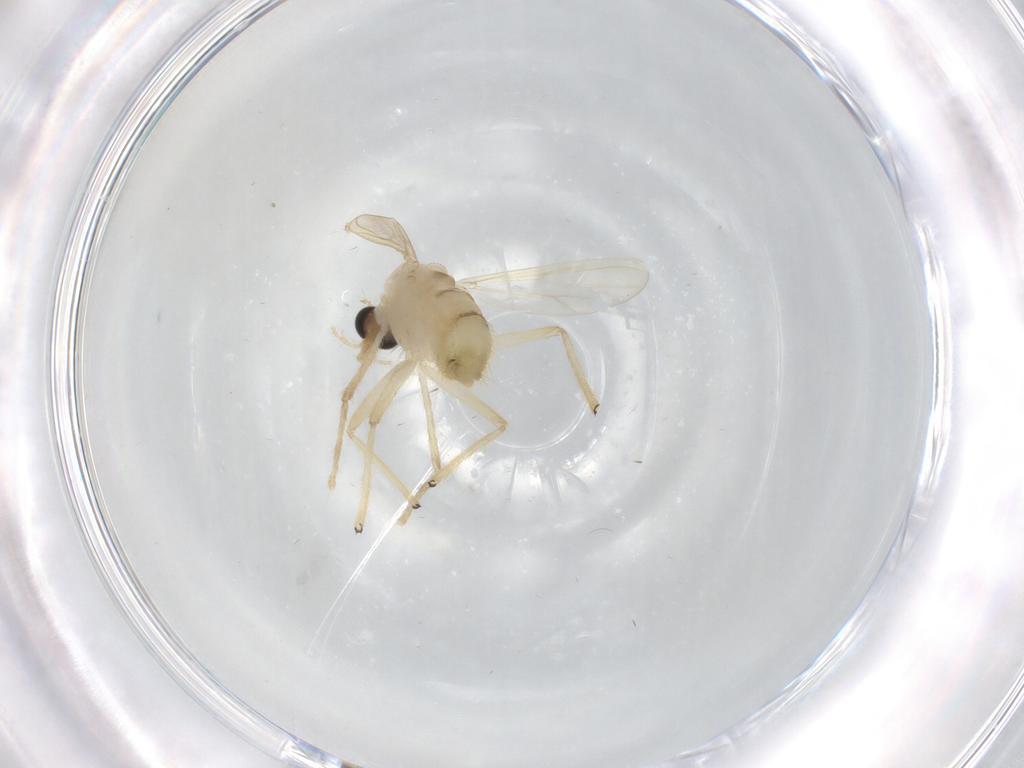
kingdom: Animalia
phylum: Arthropoda
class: Insecta
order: Diptera
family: Chironomidae
